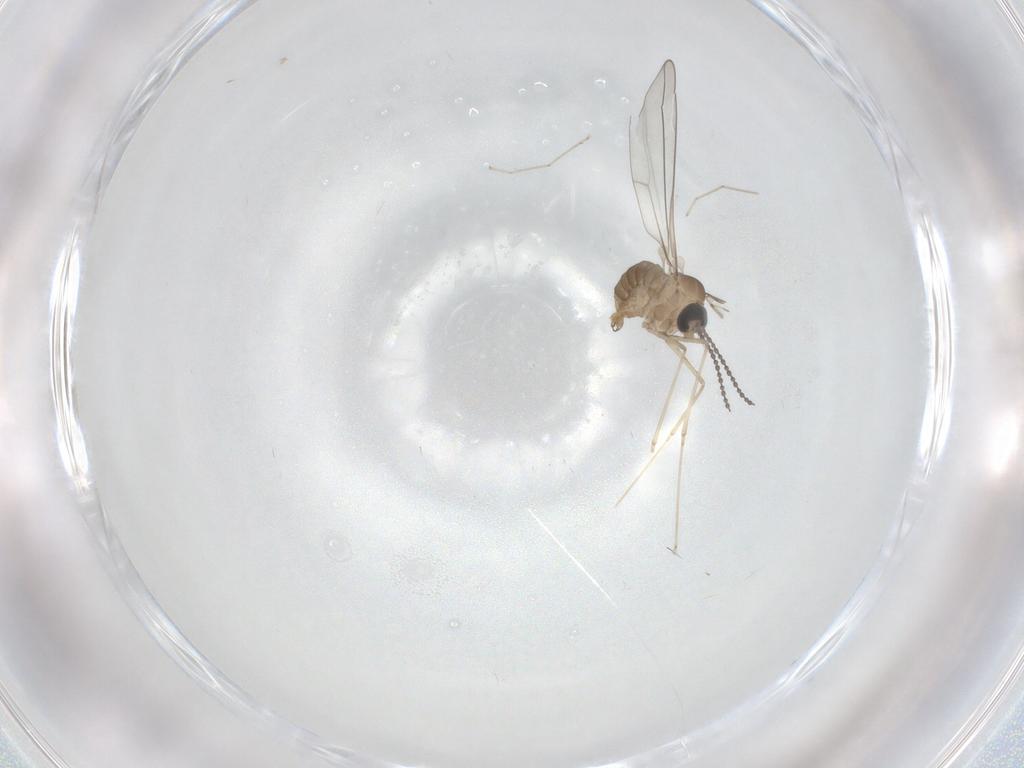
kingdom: Animalia
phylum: Arthropoda
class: Insecta
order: Diptera
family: Cecidomyiidae
